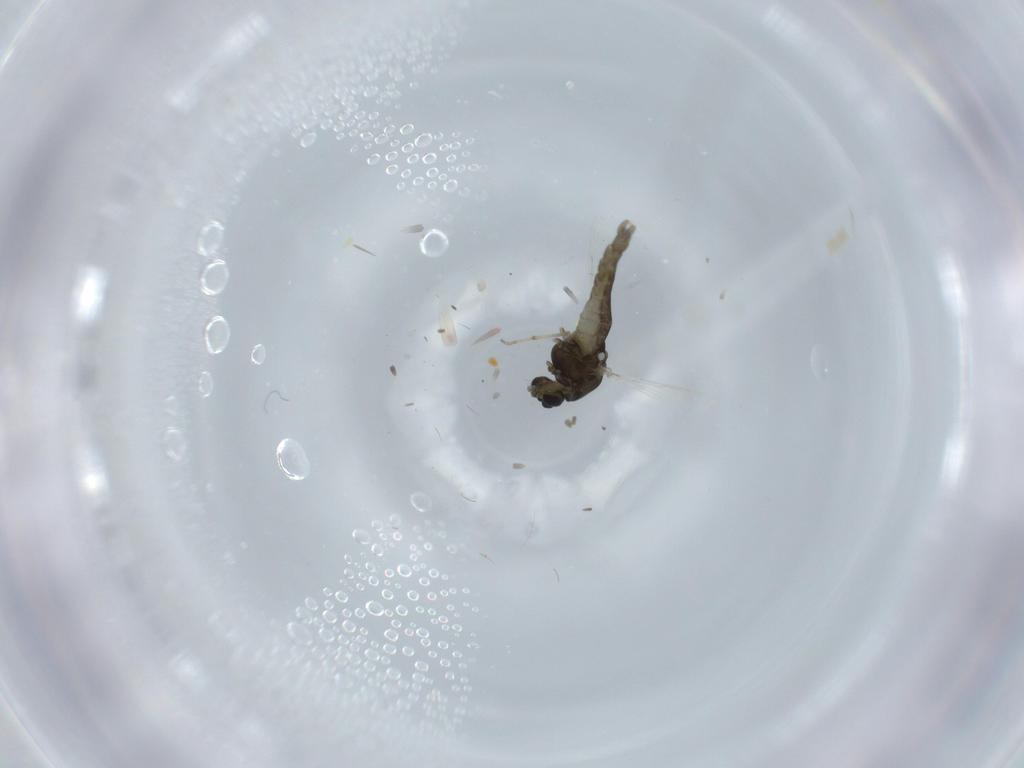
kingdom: Animalia
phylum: Arthropoda
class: Insecta
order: Diptera
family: Chironomidae
